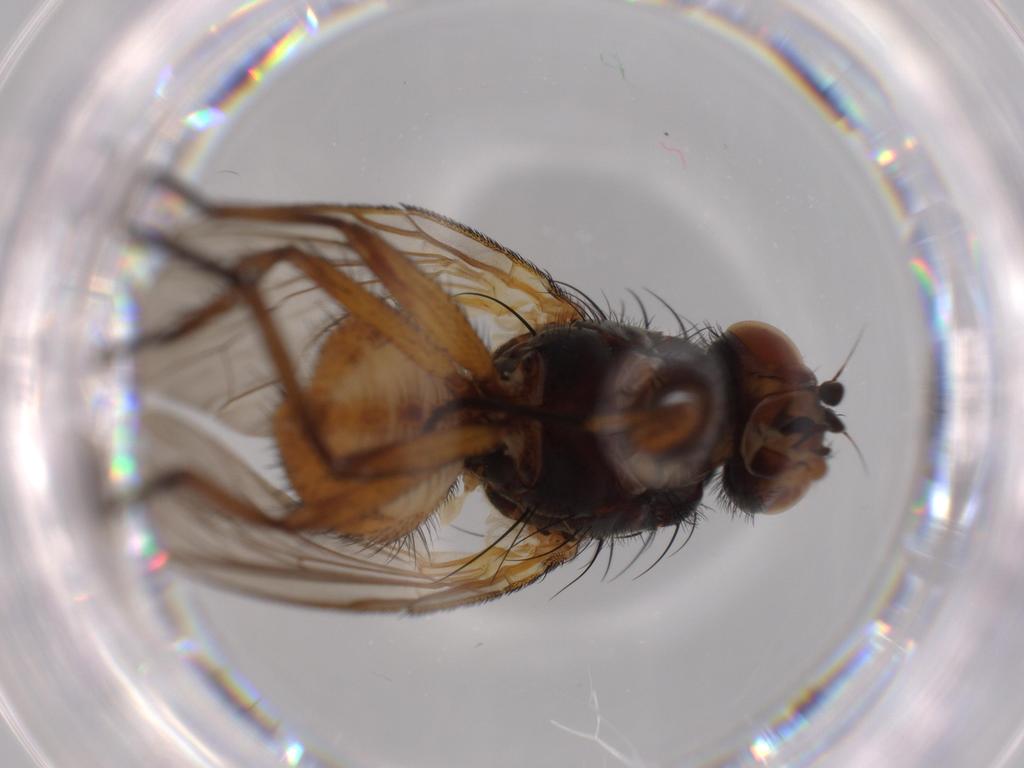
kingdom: Animalia
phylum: Arthropoda
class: Insecta
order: Diptera
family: Anthomyiidae
